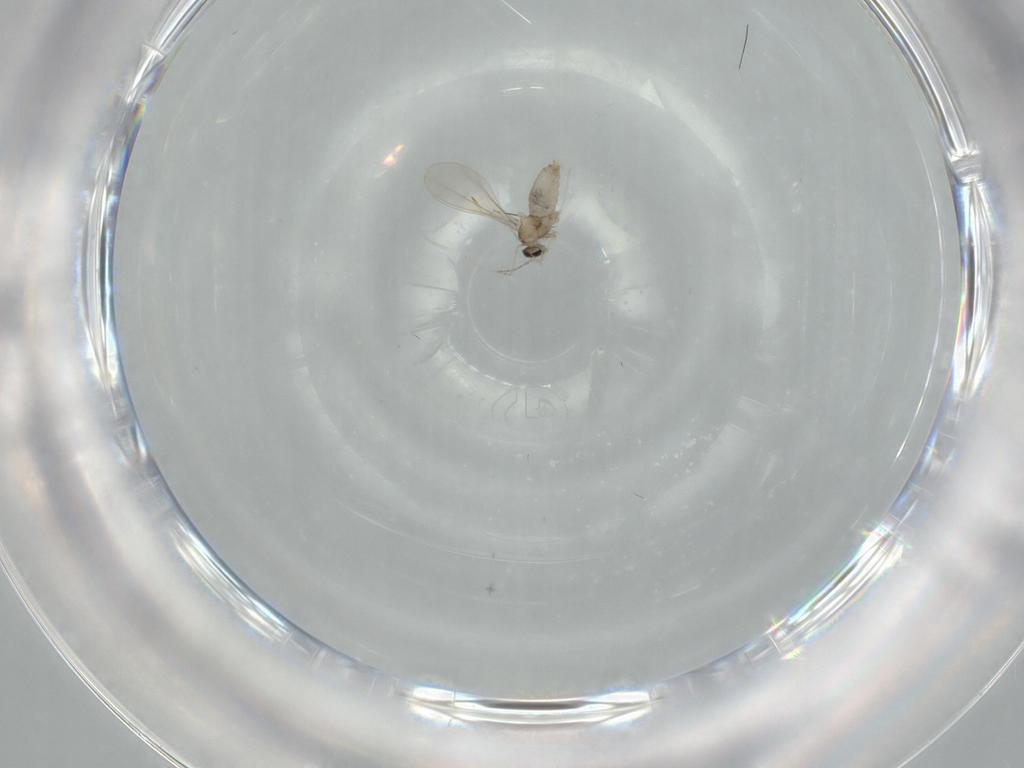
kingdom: Animalia
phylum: Arthropoda
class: Insecta
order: Diptera
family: Cecidomyiidae
